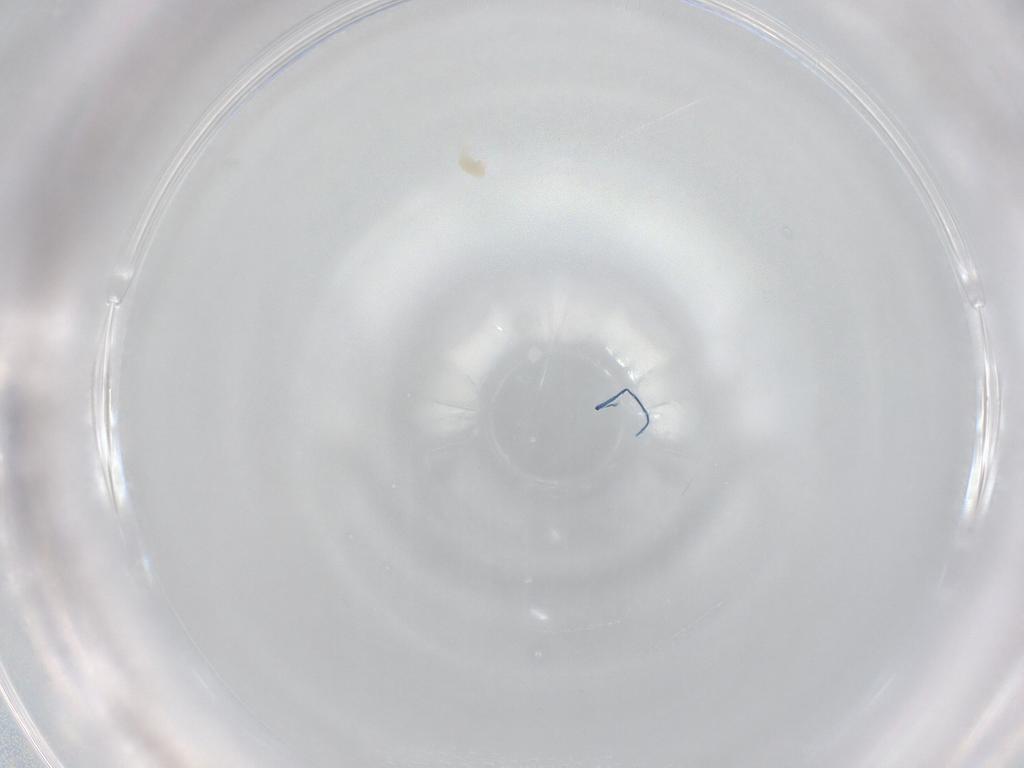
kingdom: Animalia
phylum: Arthropoda
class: Arachnida
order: Trombidiformes
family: Eupodidae
